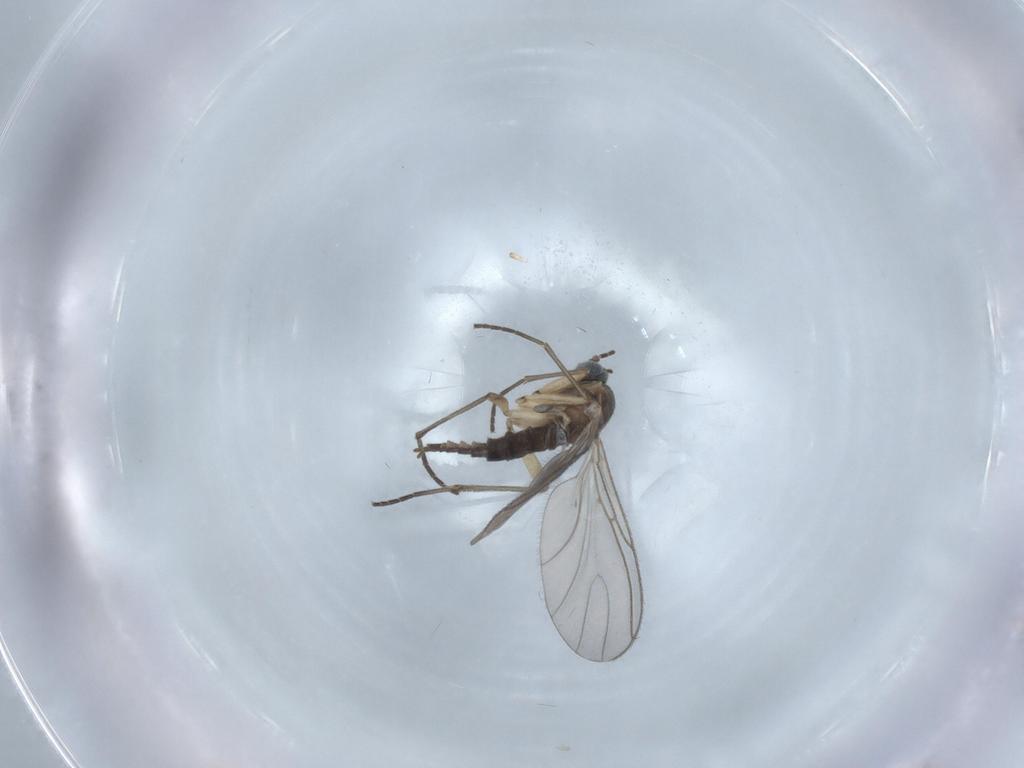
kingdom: Animalia
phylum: Arthropoda
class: Insecta
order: Diptera
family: Sciaridae
